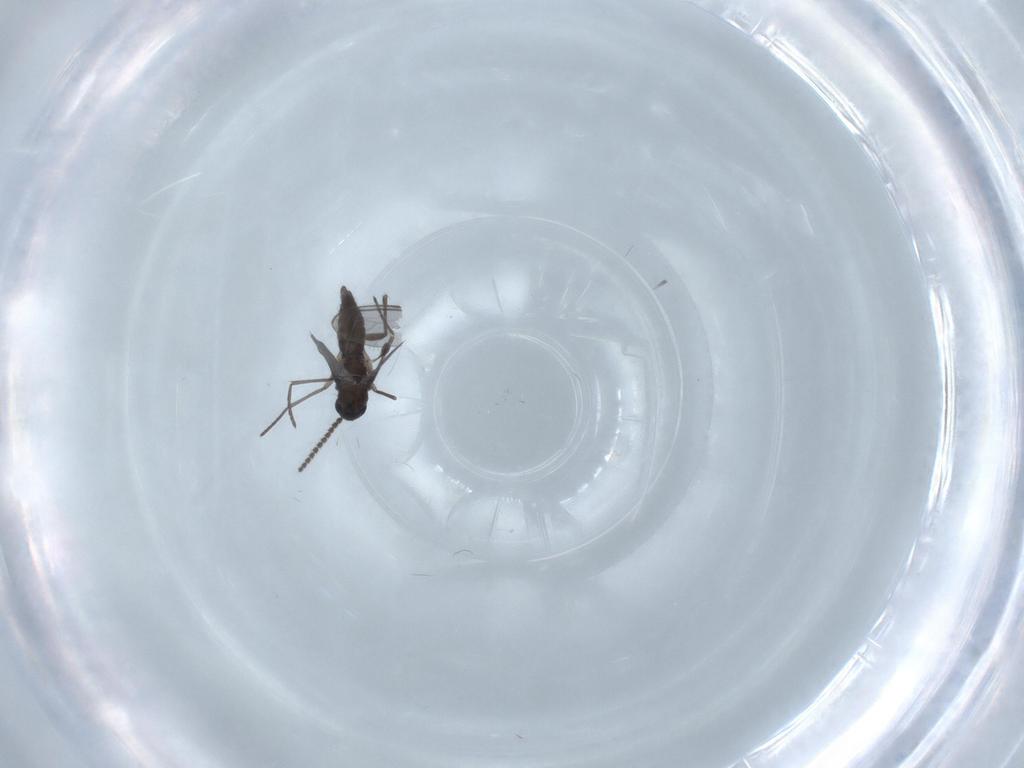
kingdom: Animalia
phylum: Arthropoda
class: Insecta
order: Diptera
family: Phoridae
